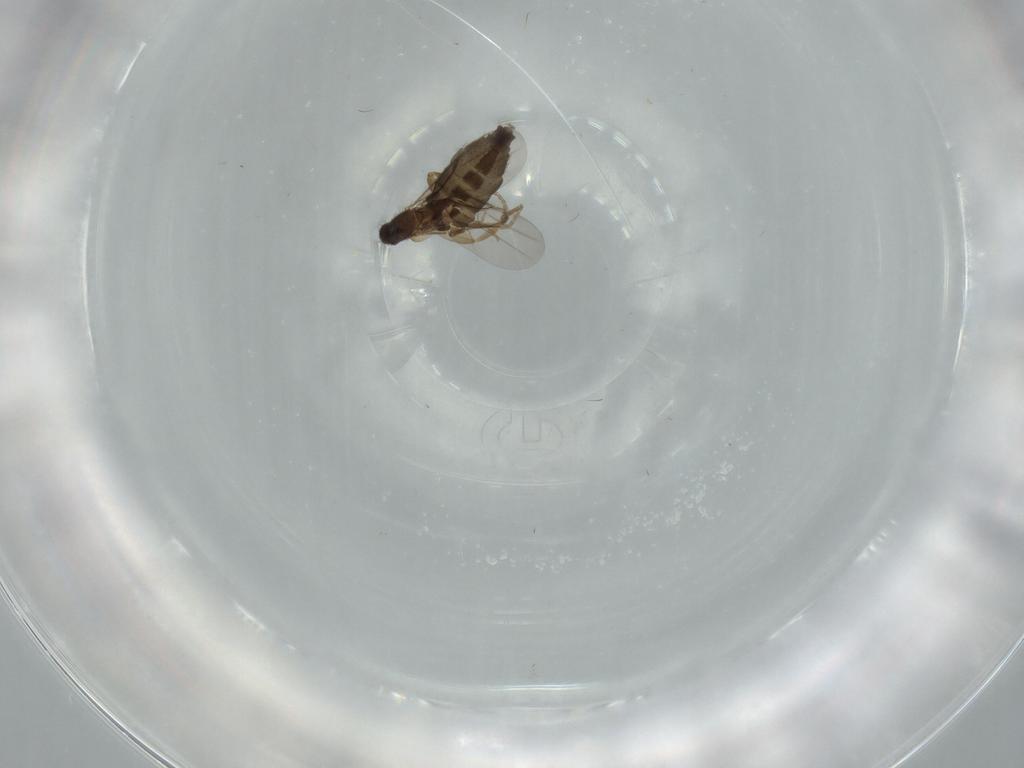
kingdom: Animalia
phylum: Arthropoda
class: Insecta
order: Diptera
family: Phoridae
